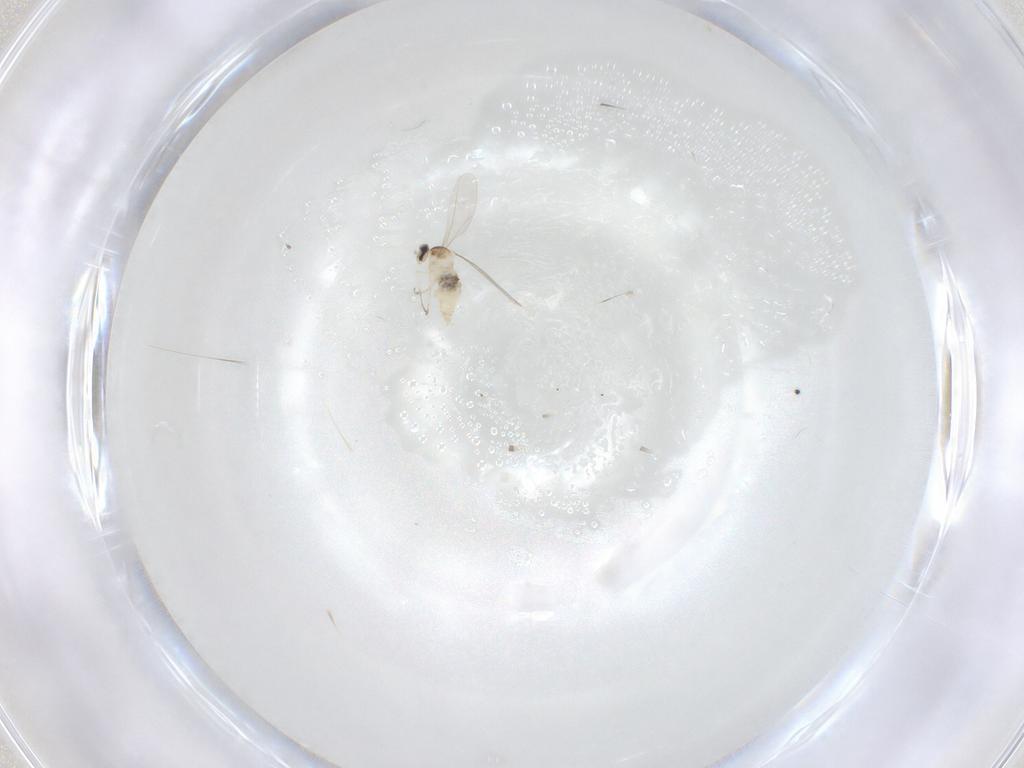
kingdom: Animalia
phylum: Arthropoda
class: Insecta
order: Diptera
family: Cecidomyiidae
